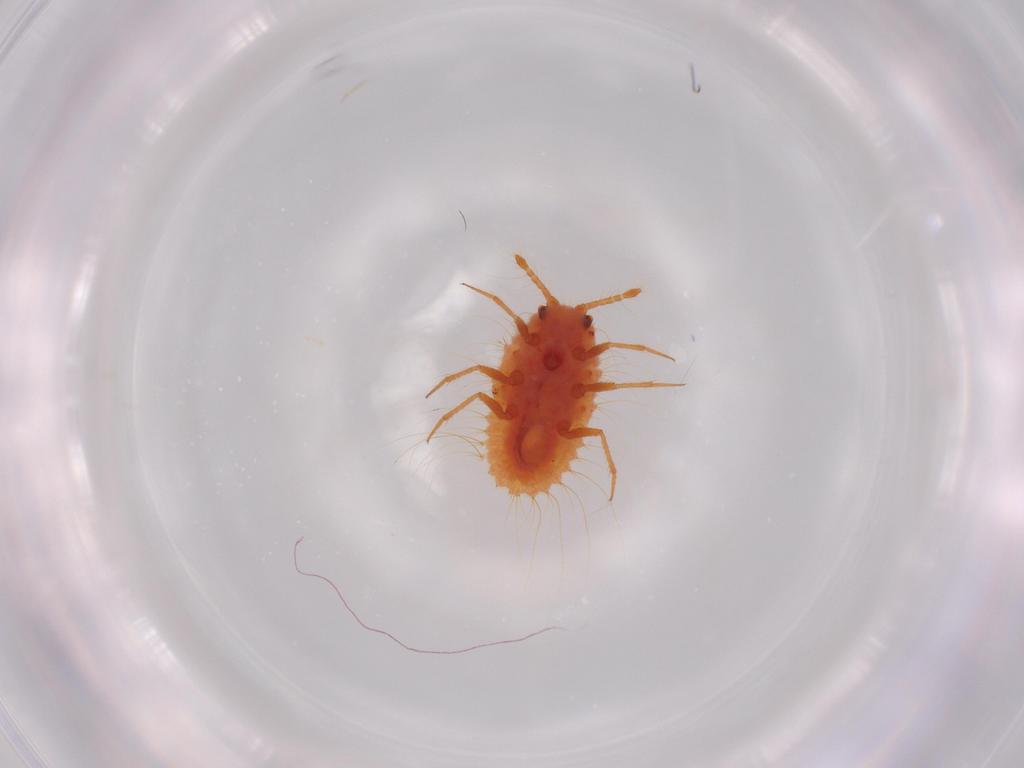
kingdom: Animalia
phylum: Arthropoda
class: Insecta
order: Hemiptera
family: Coccoidea_incertae_sedis
